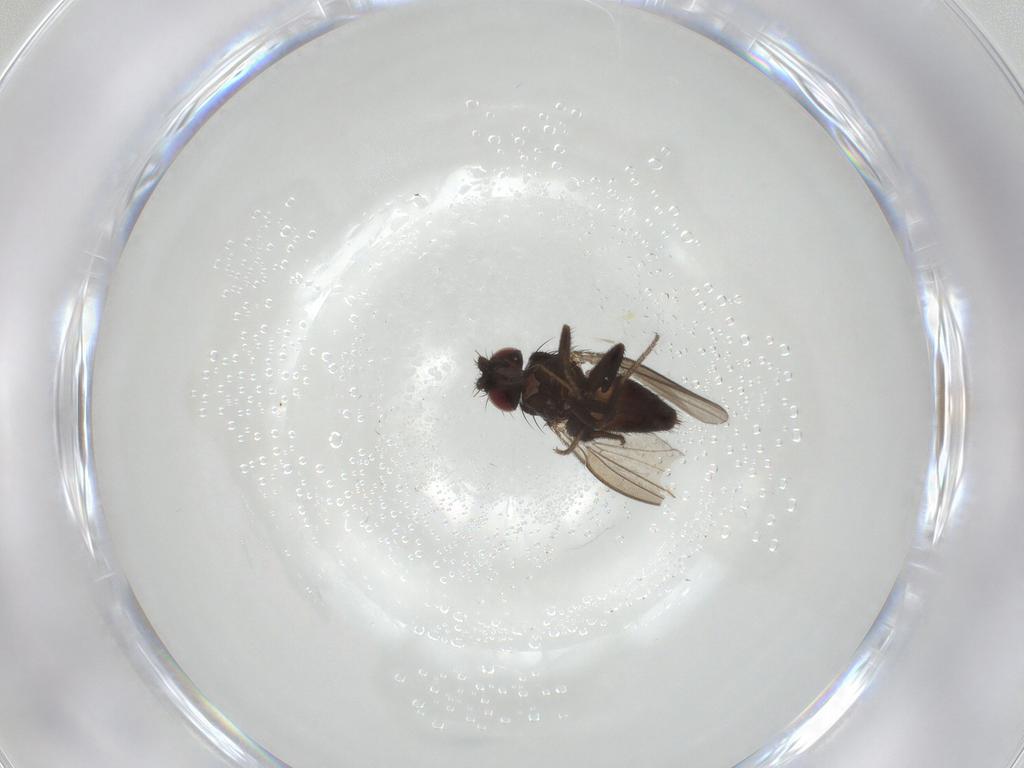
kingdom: Animalia
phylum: Arthropoda
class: Insecta
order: Diptera
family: Milichiidae
